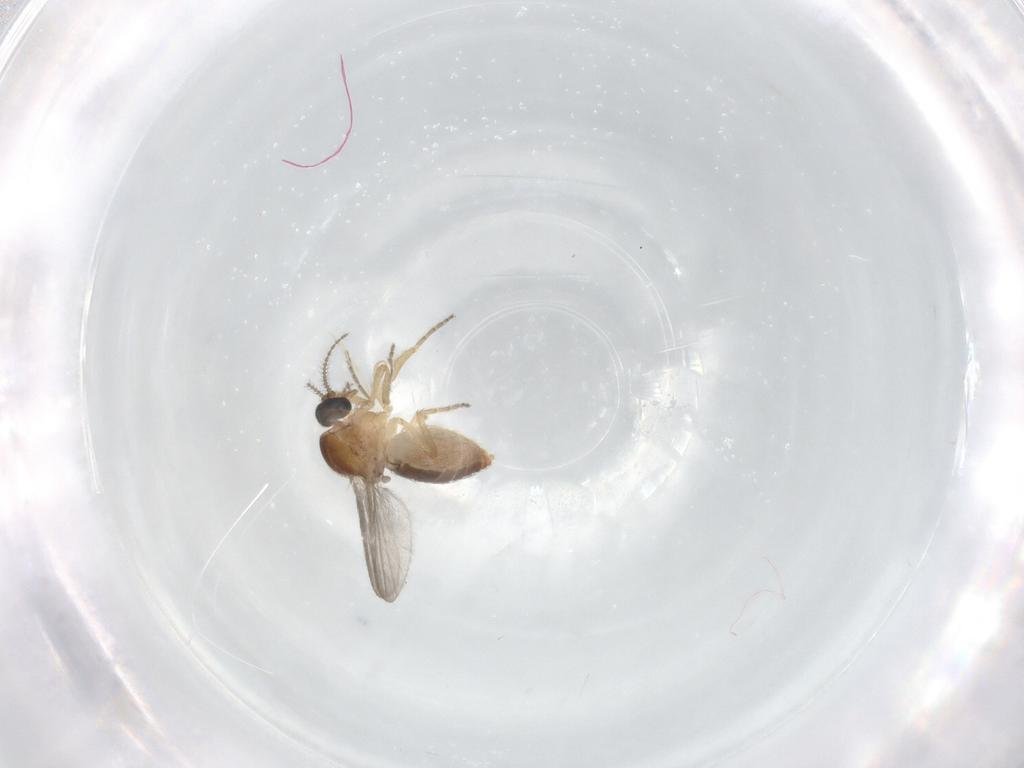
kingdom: Animalia
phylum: Arthropoda
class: Insecta
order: Diptera
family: Ceratopogonidae
